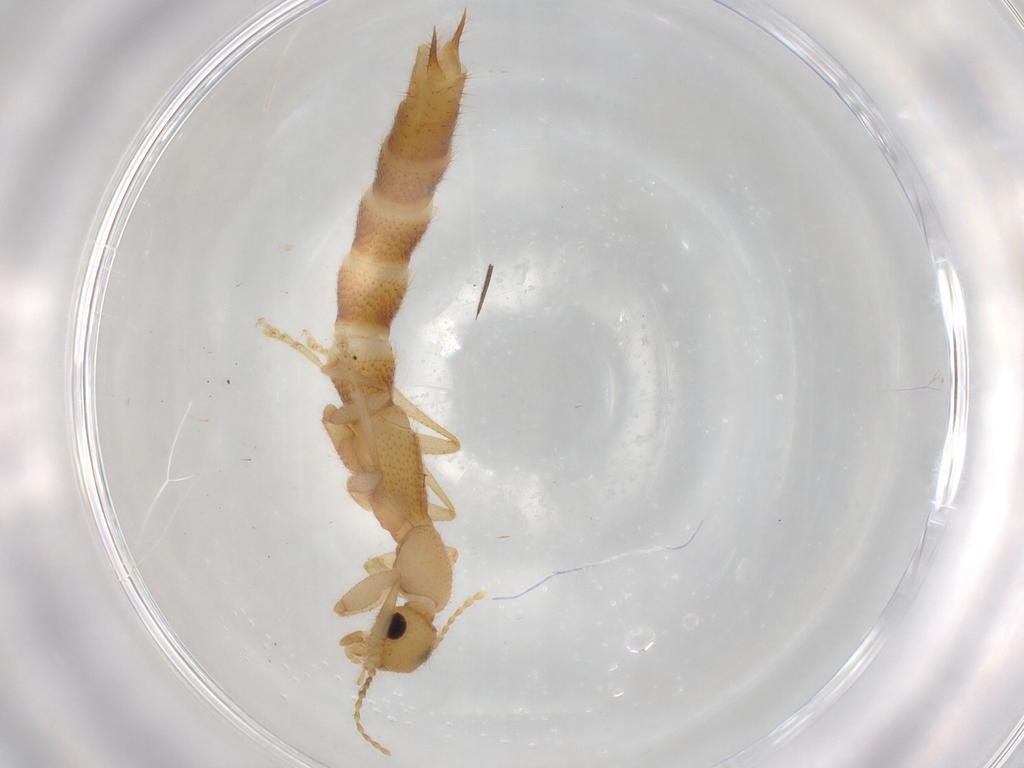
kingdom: Animalia
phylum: Arthropoda
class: Insecta
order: Coleoptera
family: Staphylinidae
